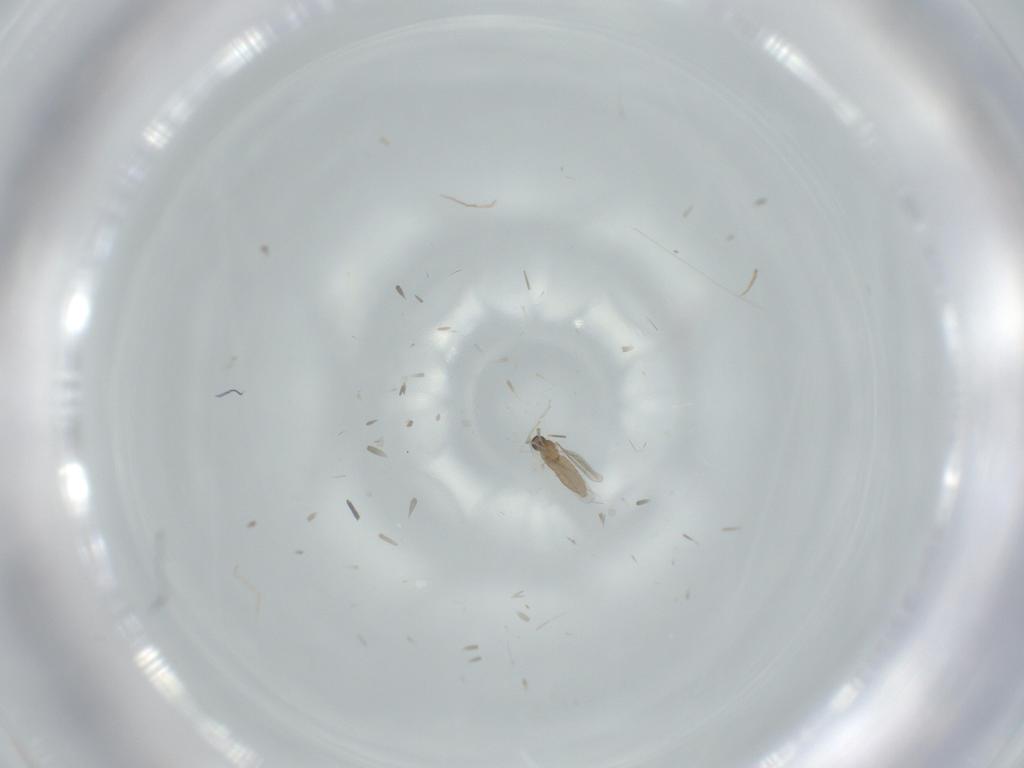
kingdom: Animalia
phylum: Arthropoda
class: Insecta
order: Diptera
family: Cecidomyiidae
